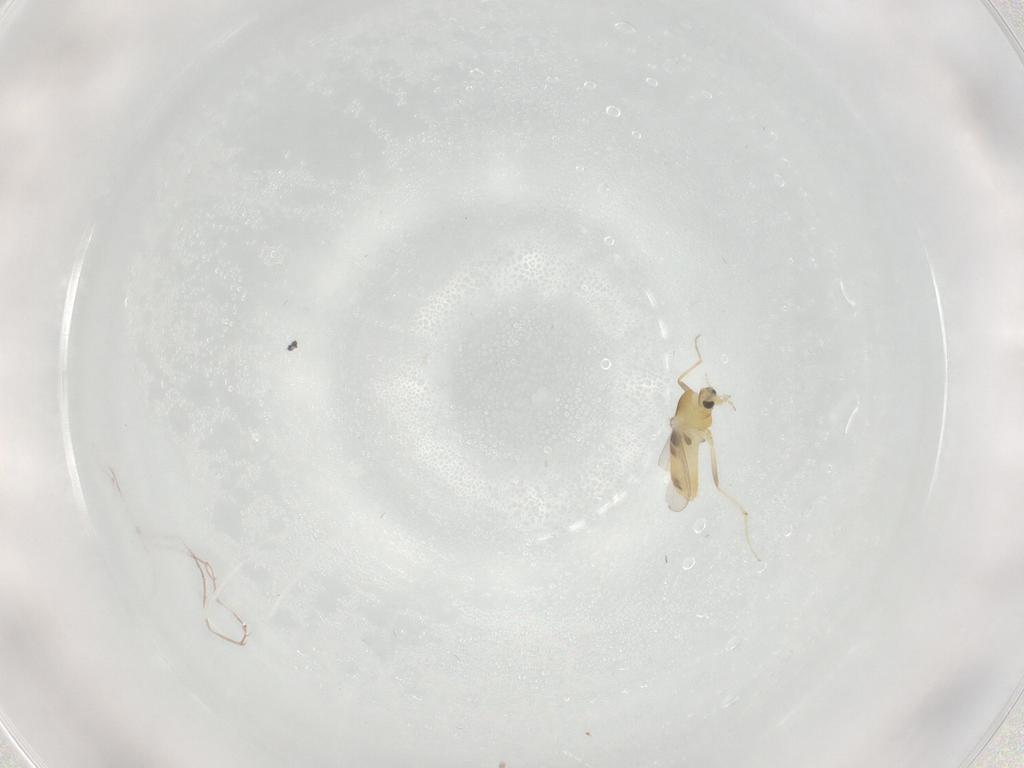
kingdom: Animalia
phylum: Arthropoda
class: Insecta
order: Diptera
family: Chironomidae
